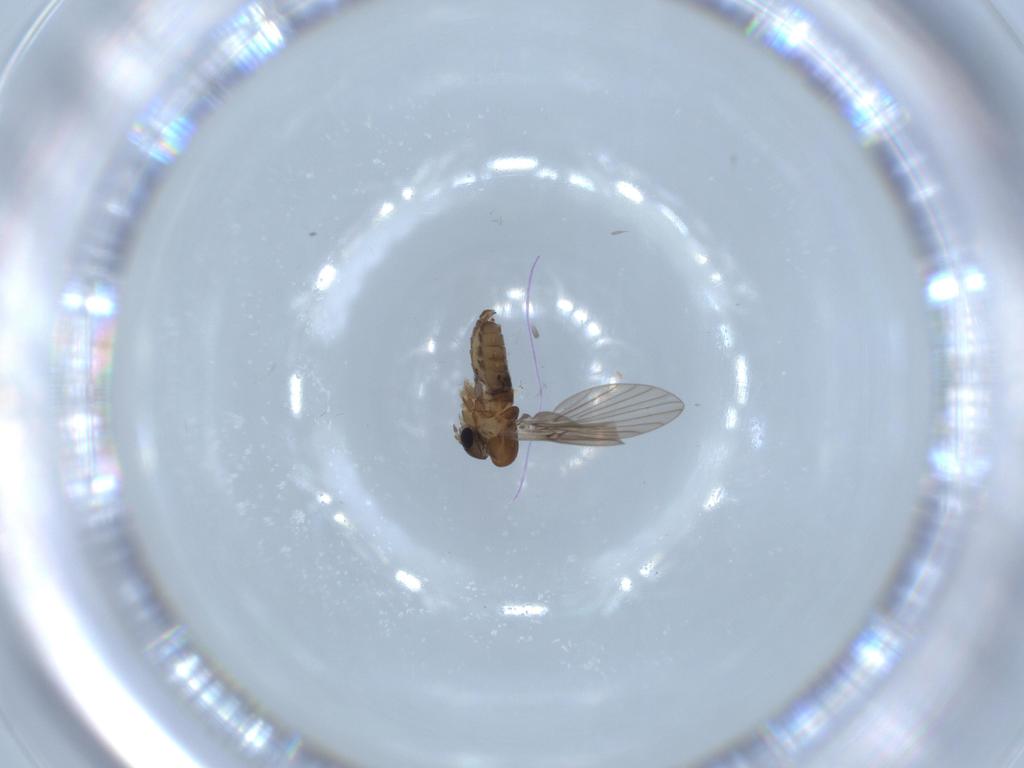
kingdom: Animalia
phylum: Arthropoda
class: Insecta
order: Diptera
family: Psychodidae
